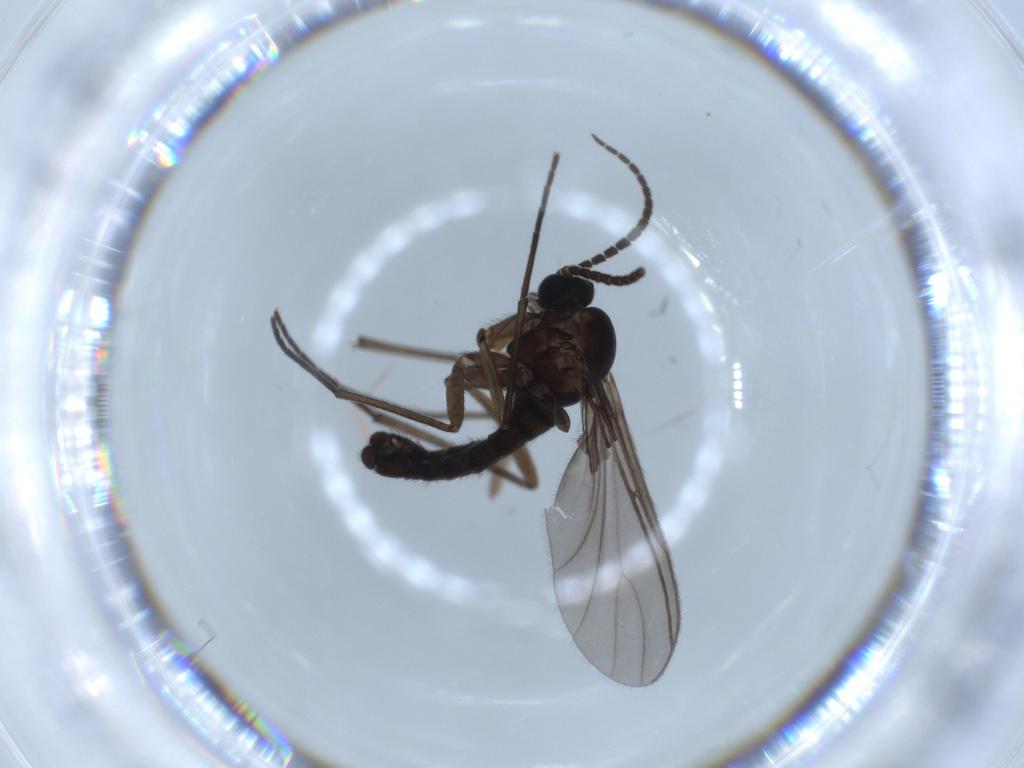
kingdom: Animalia
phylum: Arthropoda
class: Insecta
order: Diptera
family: Sciaridae
